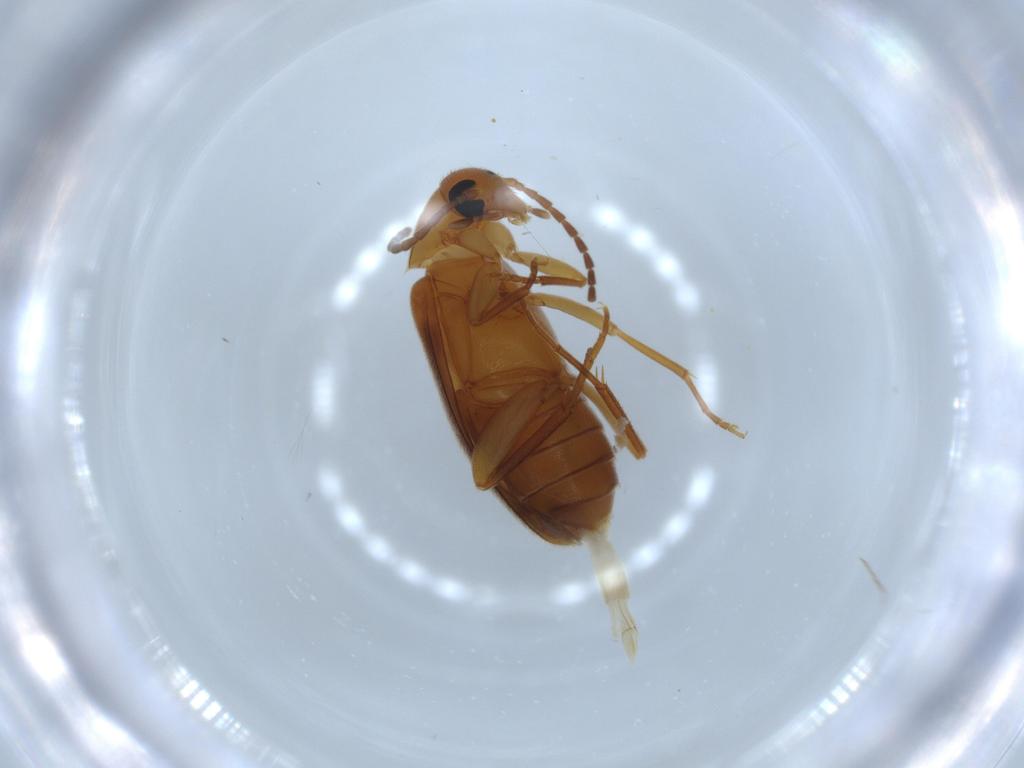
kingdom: Animalia
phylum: Arthropoda
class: Insecta
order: Coleoptera
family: Scraptiidae
